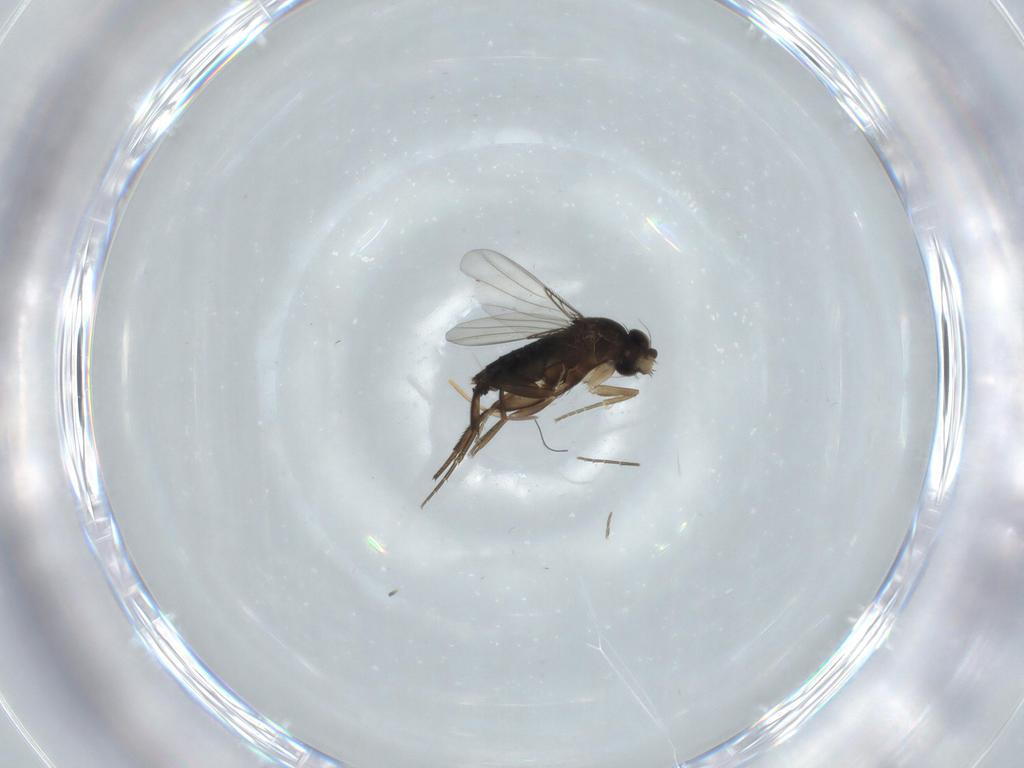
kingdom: Animalia
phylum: Arthropoda
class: Insecta
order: Diptera
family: Phoridae
